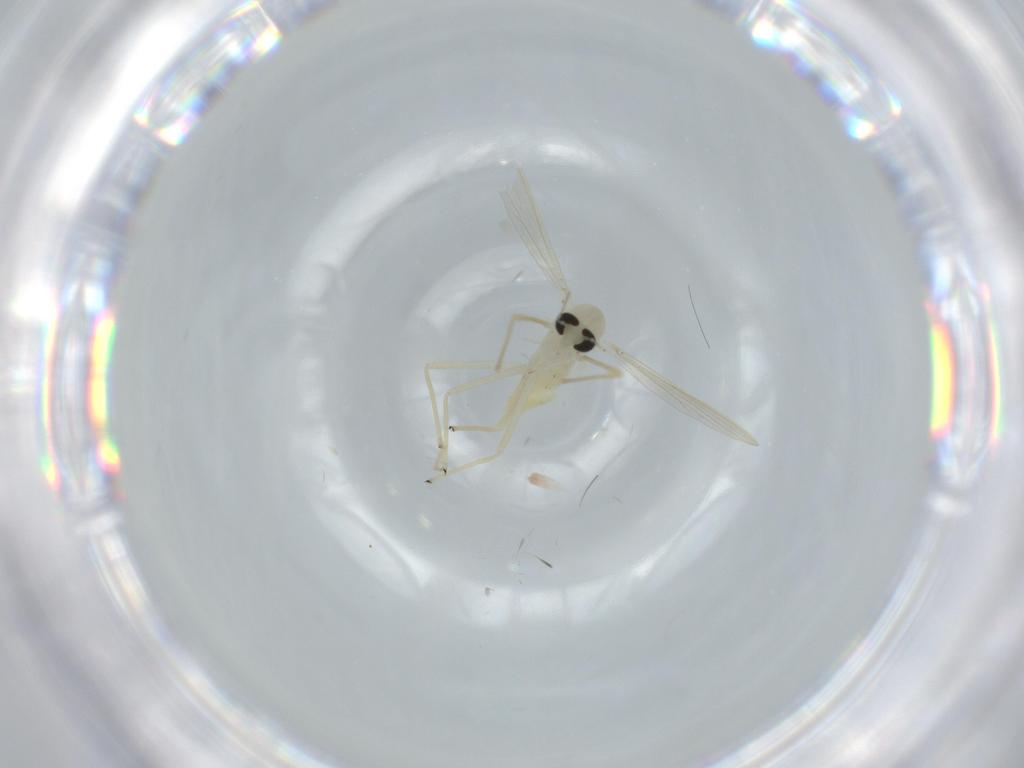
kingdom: Animalia
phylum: Arthropoda
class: Insecta
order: Diptera
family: Chironomidae
